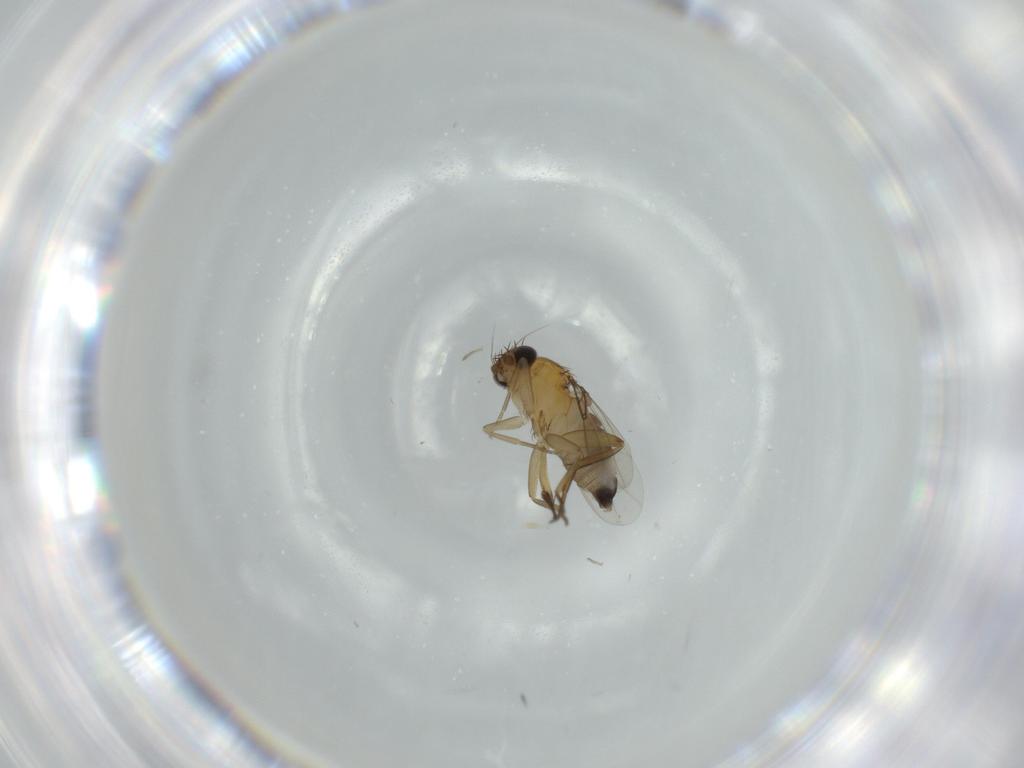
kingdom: Animalia
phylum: Arthropoda
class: Insecta
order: Diptera
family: Phoridae
